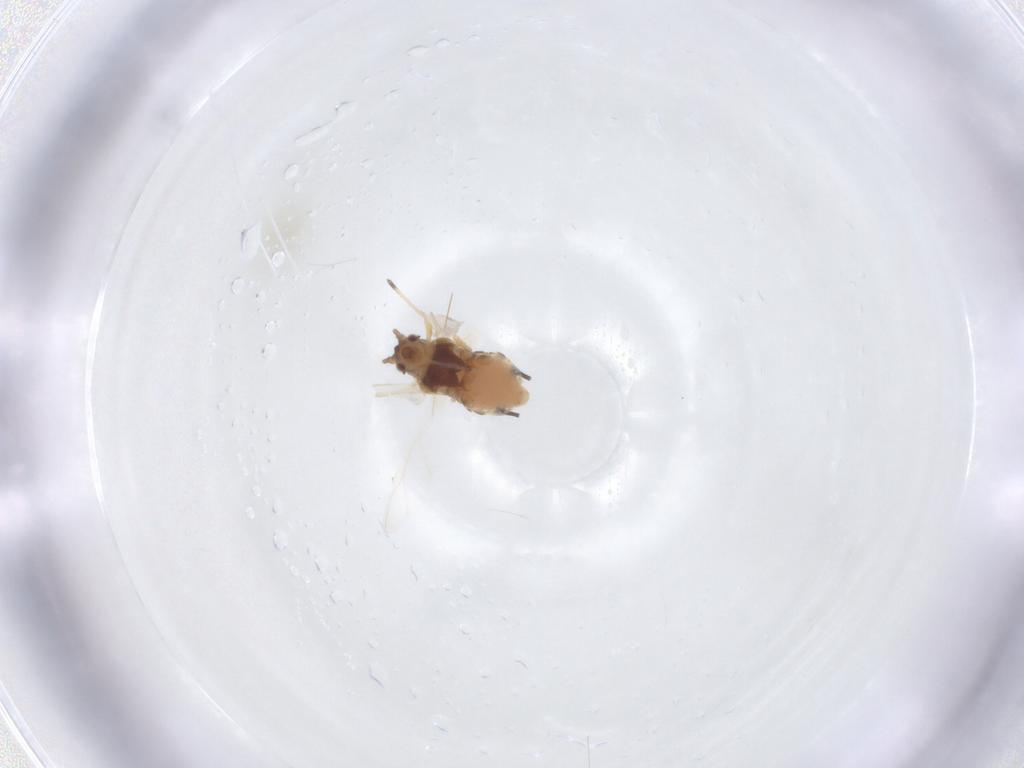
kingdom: Animalia
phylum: Arthropoda
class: Insecta
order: Hemiptera
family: Aphididae
